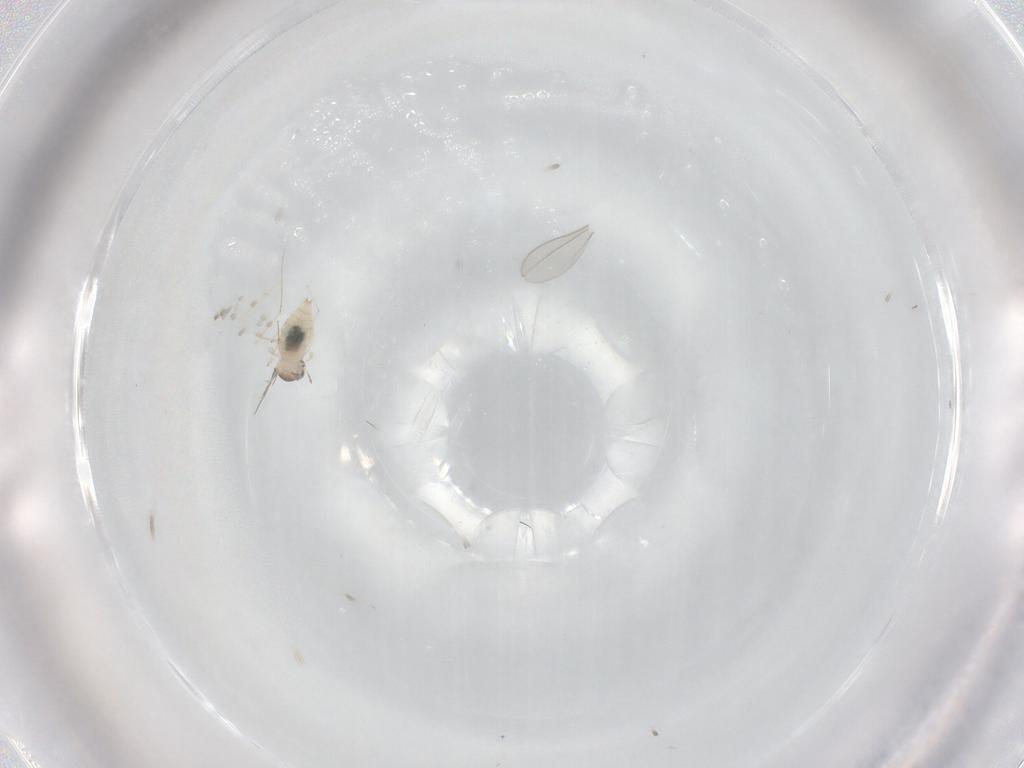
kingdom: Animalia
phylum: Arthropoda
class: Insecta
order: Diptera
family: Cecidomyiidae
